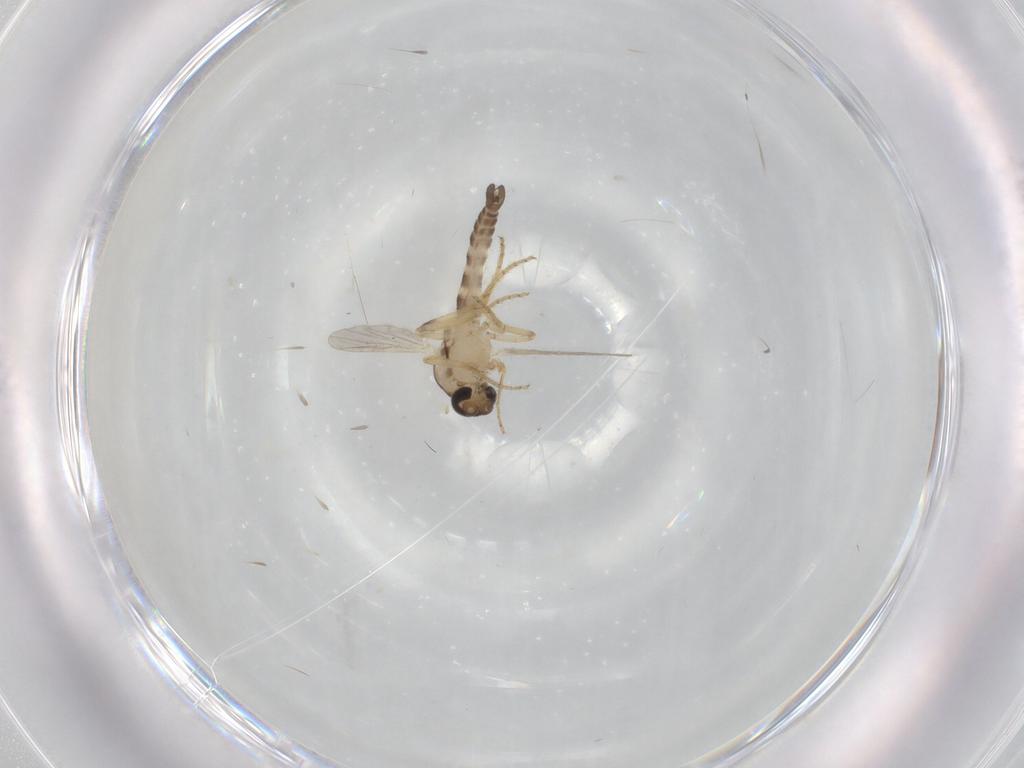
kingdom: Animalia
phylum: Arthropoda
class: Insecta
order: Diptera
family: Ceratopogonidae
